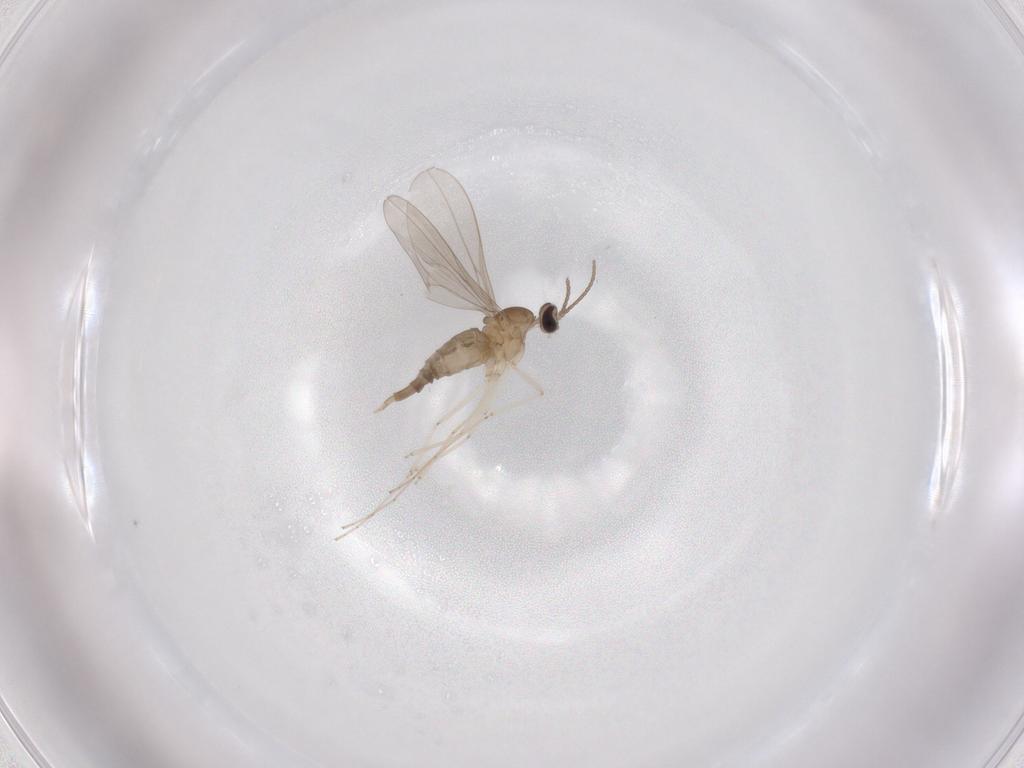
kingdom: Animalia
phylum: Arthropoda
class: Insecta
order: Diptera
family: Cecidomyiidae
